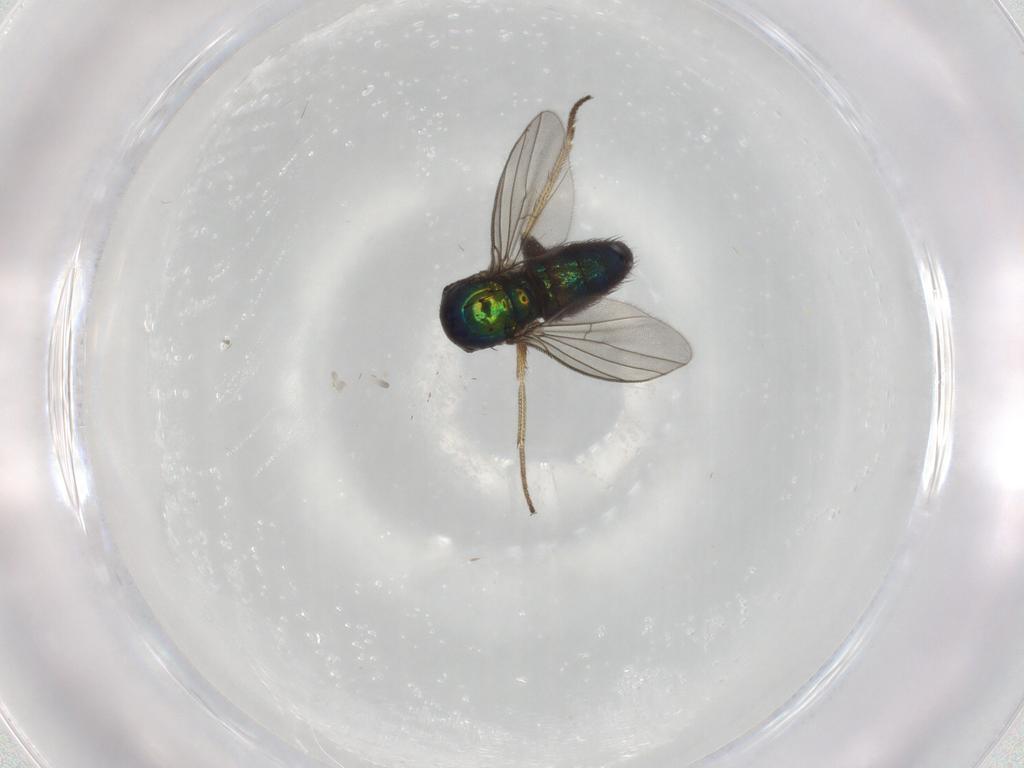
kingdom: Animalia
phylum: Arthropoda
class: Insecta
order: Diptera
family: Dolichopodidae
